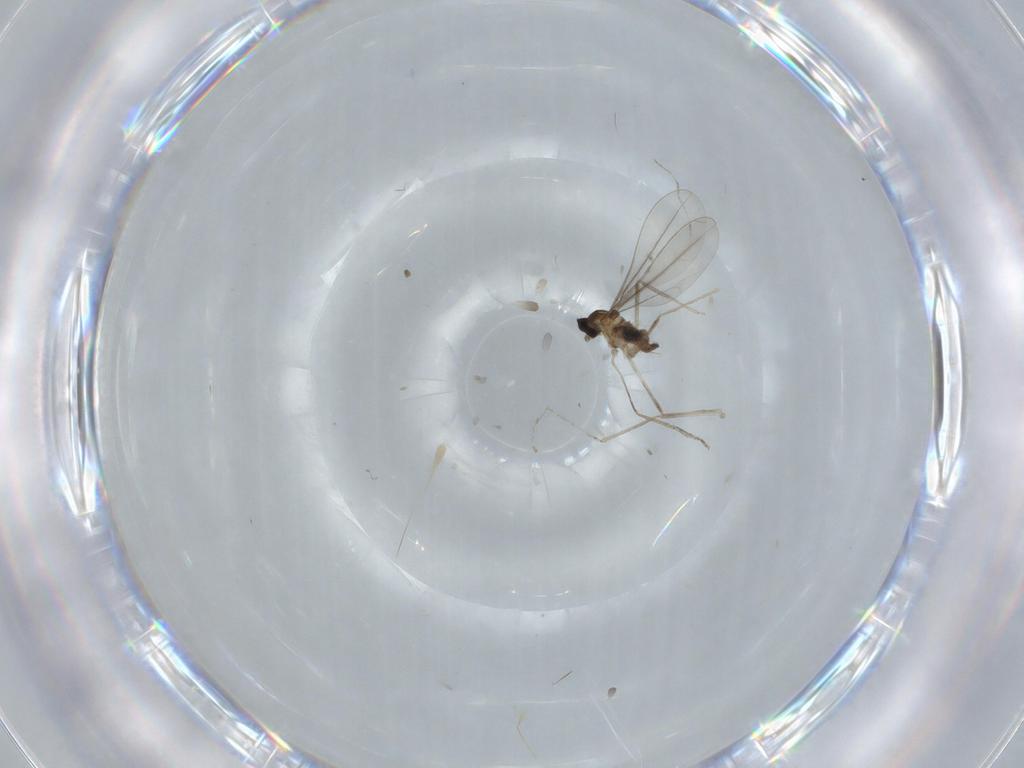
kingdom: Animalia
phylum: Arthropoda
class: Insecta
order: Diptera
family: Cecidomyiidae
